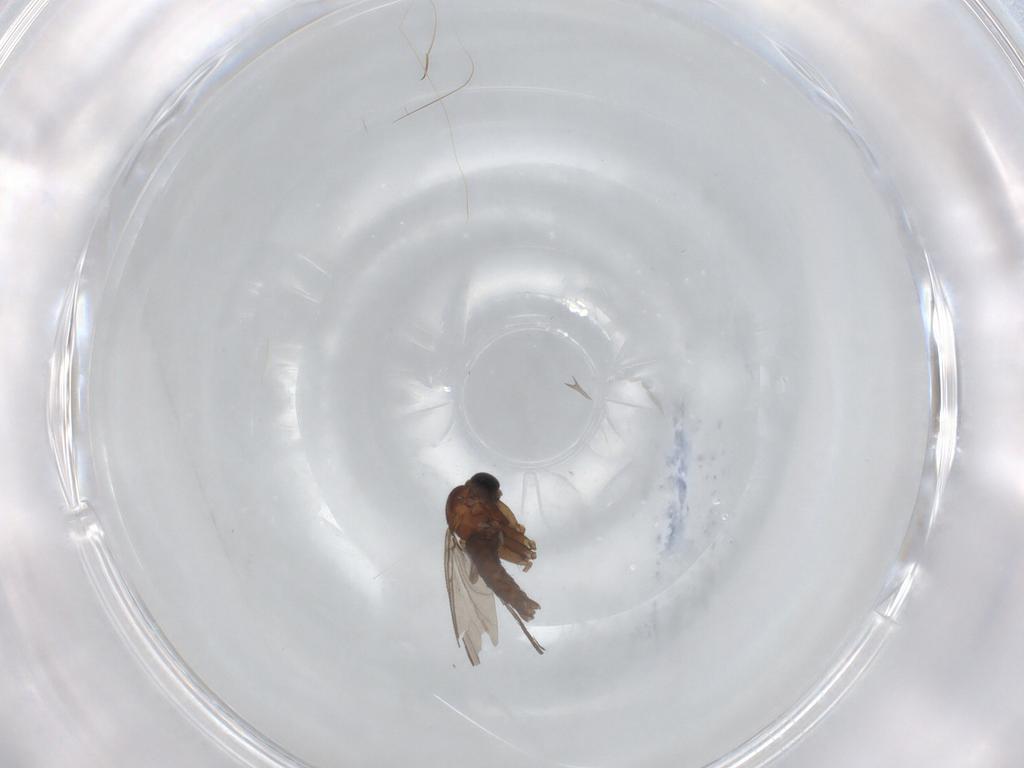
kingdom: Animalia
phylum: Arthropoda
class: Insecta
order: Diptera
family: Sciaridae
